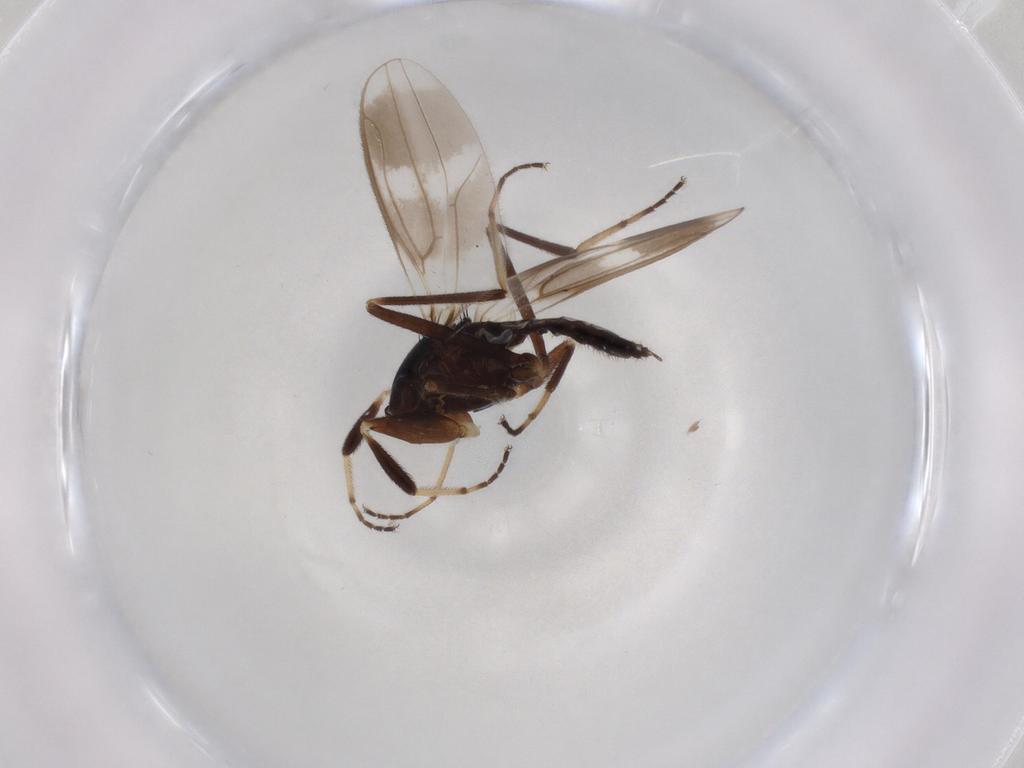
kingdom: Animalia
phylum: Arthropoda
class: Insecta
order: Diptera
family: Hybotidae
